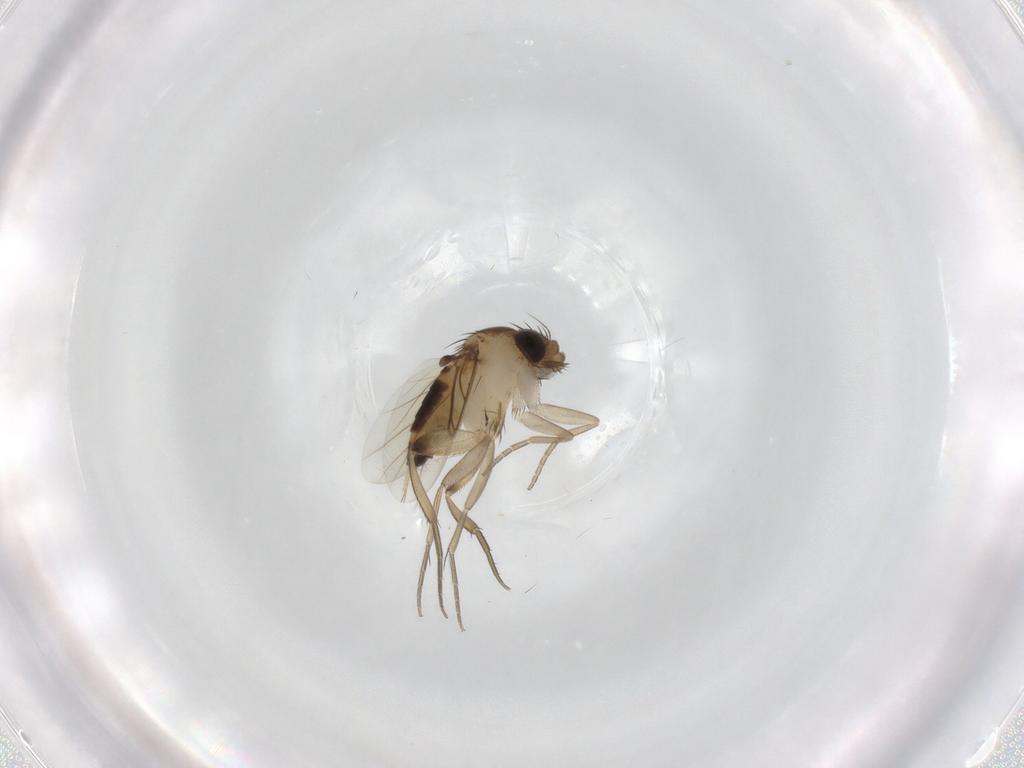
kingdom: Animalia
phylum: Arthropoda
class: Insecta
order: Diptera
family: Phoridae
